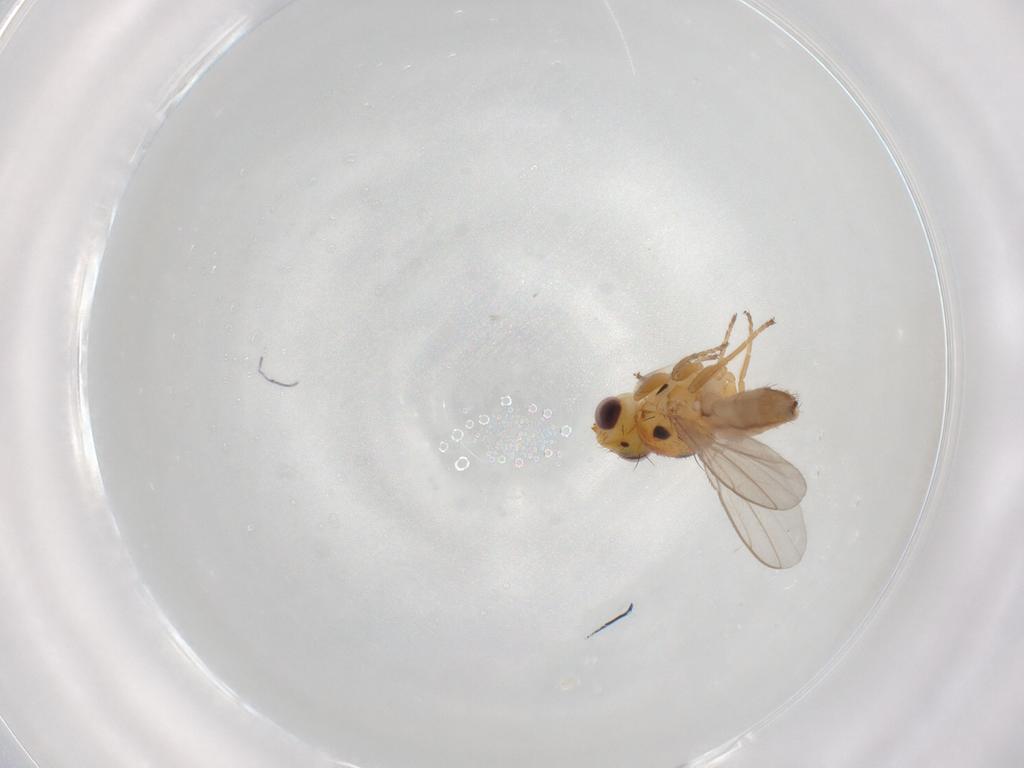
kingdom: Animalia
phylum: Arthropoda
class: Insecta
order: Diptera
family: Chloropidae
